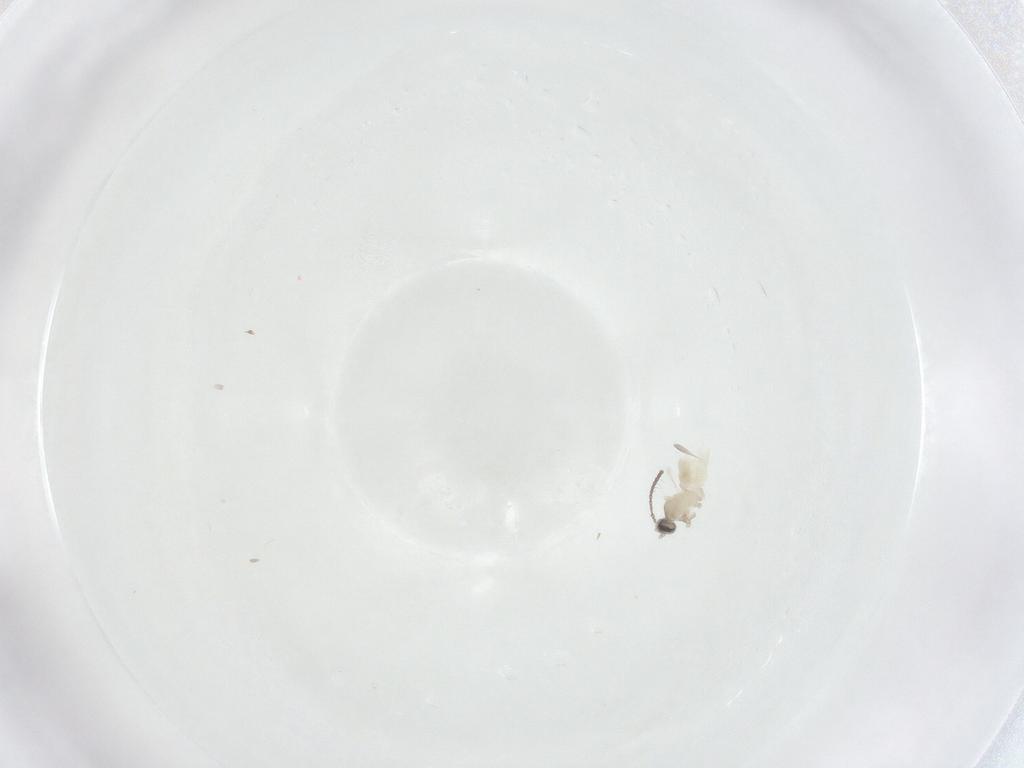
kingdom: Animalia
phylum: Arthropoda
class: Insecta
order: Diptera
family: Cecidomyiidae
